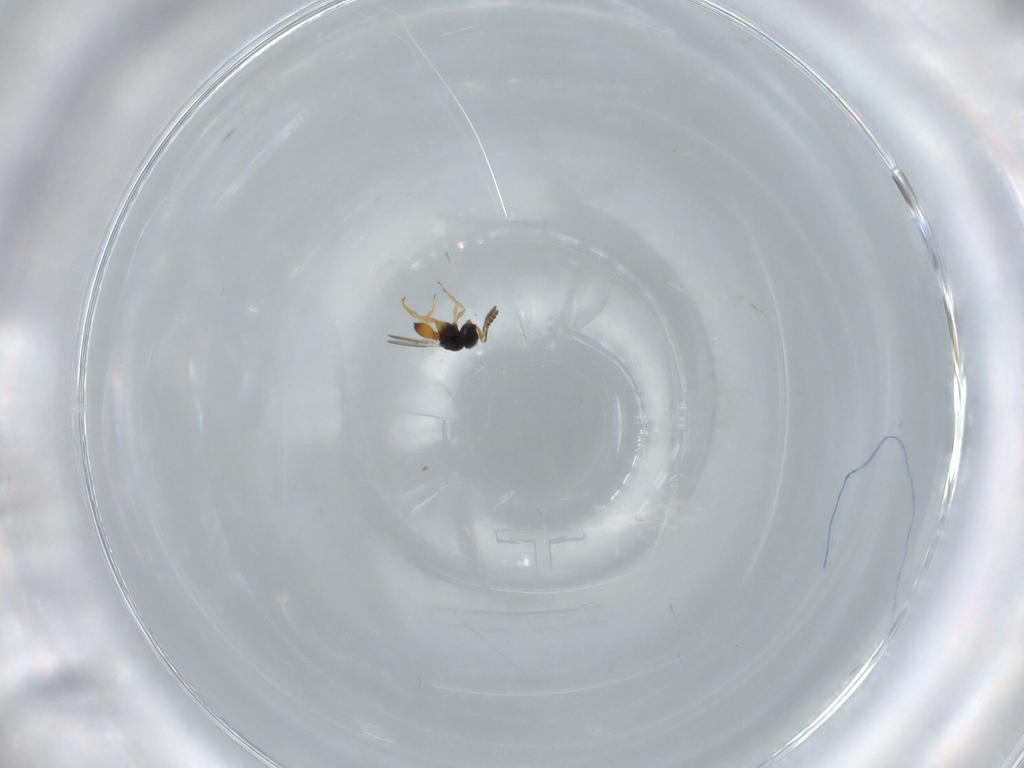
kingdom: Animalia
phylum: Arthropoda
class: Insecta
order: Hymenoptera
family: Scelionidae
